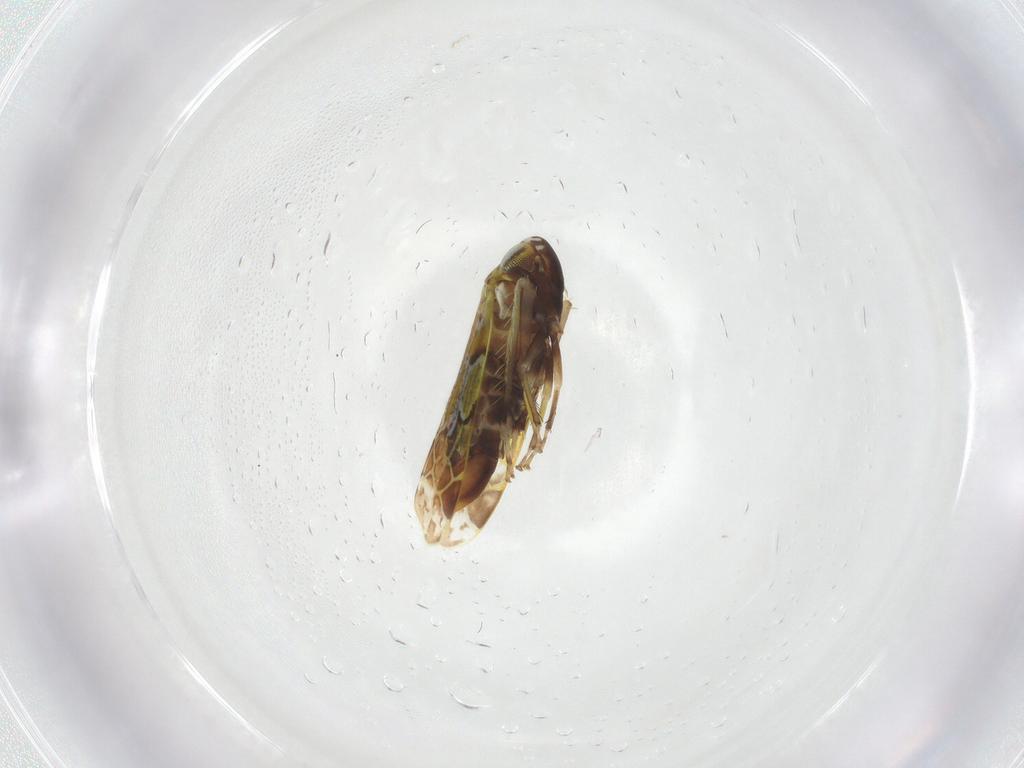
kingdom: Animalia
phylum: Arthropoda
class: Insecta
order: Hemiptera
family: Cicadellidae
